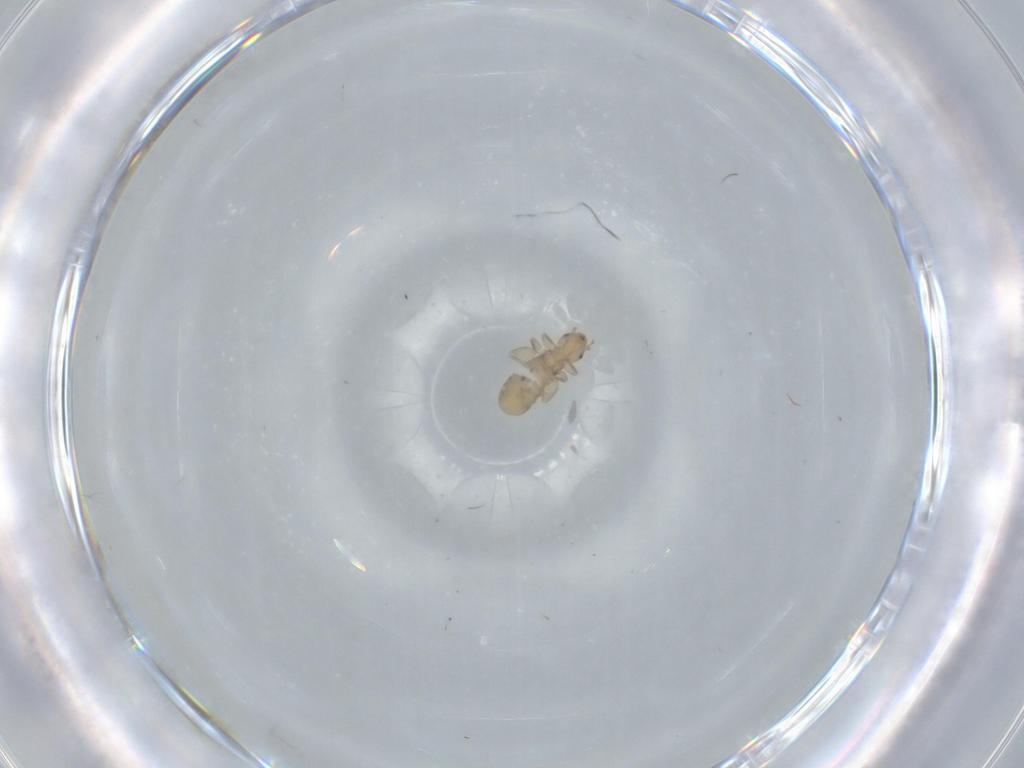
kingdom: Animalia
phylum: Arthropoda
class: Insecta
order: Psocodea
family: Liposcelididae
